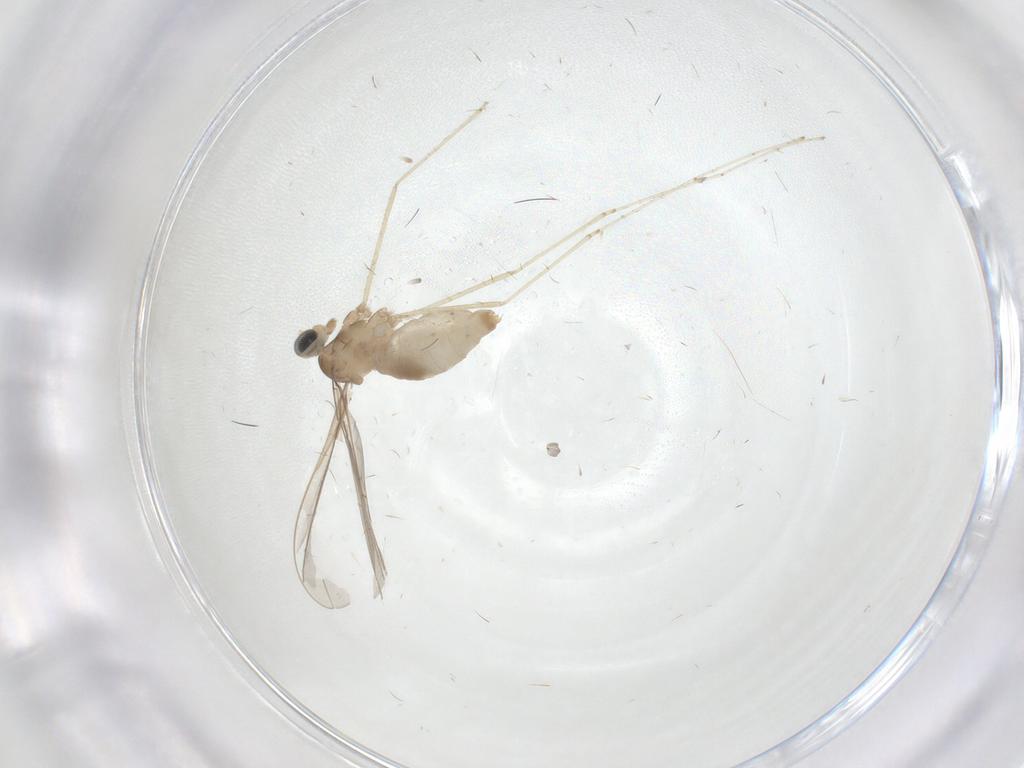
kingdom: Animalia
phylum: Arthropoda
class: Insecta
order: Diptera
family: Cecidomyiidae
